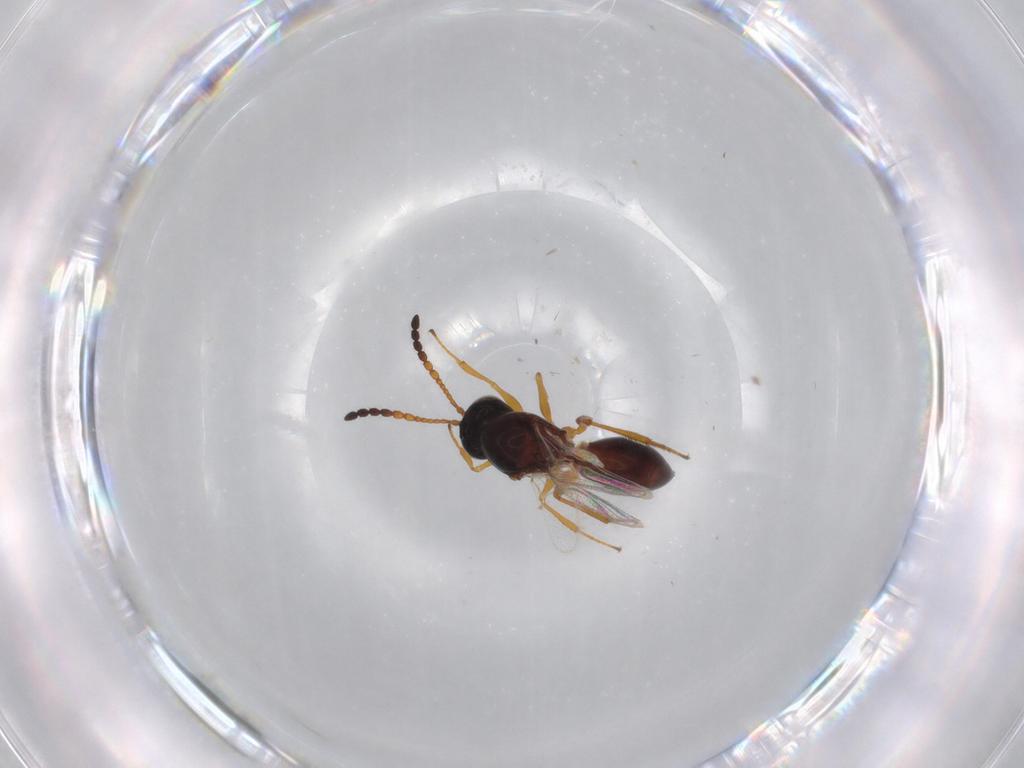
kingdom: Animalia
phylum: Arthropoda
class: Insecta
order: Hymenoptera
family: Figitidae
